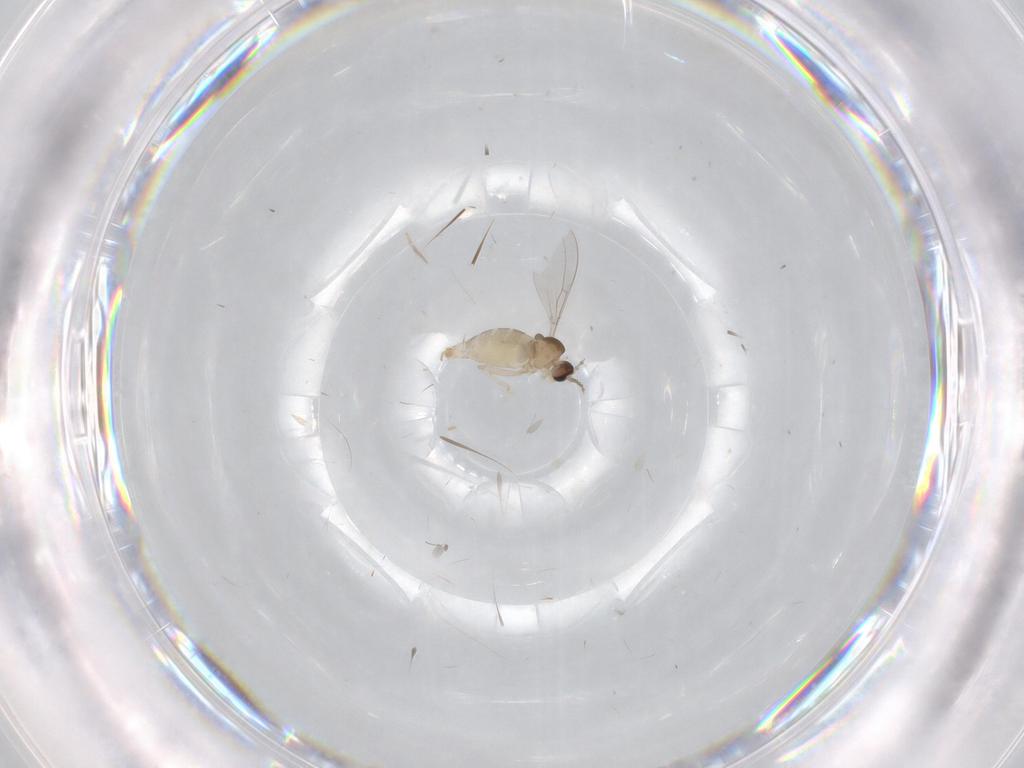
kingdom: Animalia
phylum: Arthropoda
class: Insecta
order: Diptera
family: Cecidomyiidae
